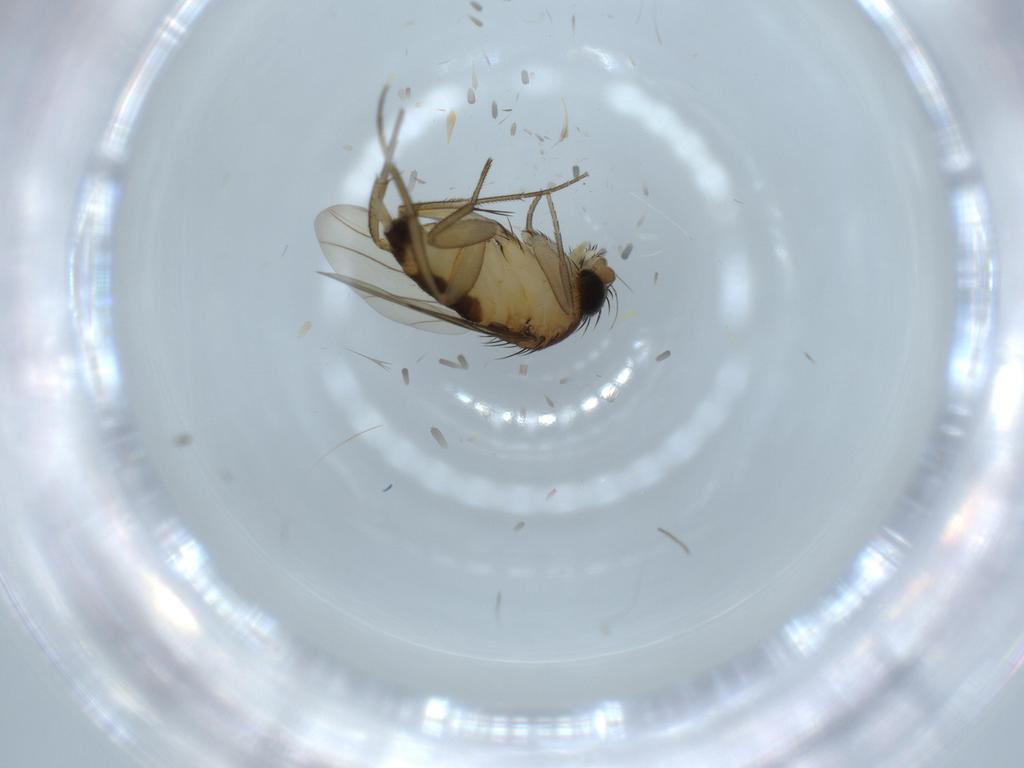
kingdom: Animalia
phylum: Arthropoda
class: Insecta
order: Diptera
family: Cecidomyiidae
